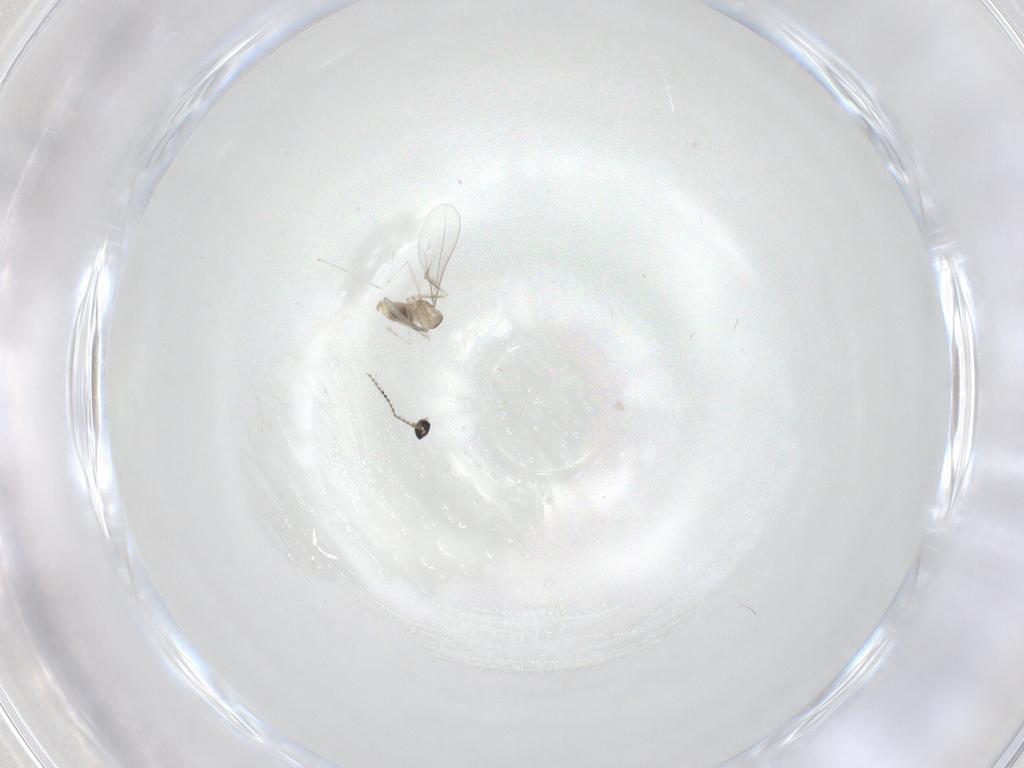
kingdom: Animalia
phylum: Arthropoda
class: Insecta
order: Diptera
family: Cecidomyiidae
